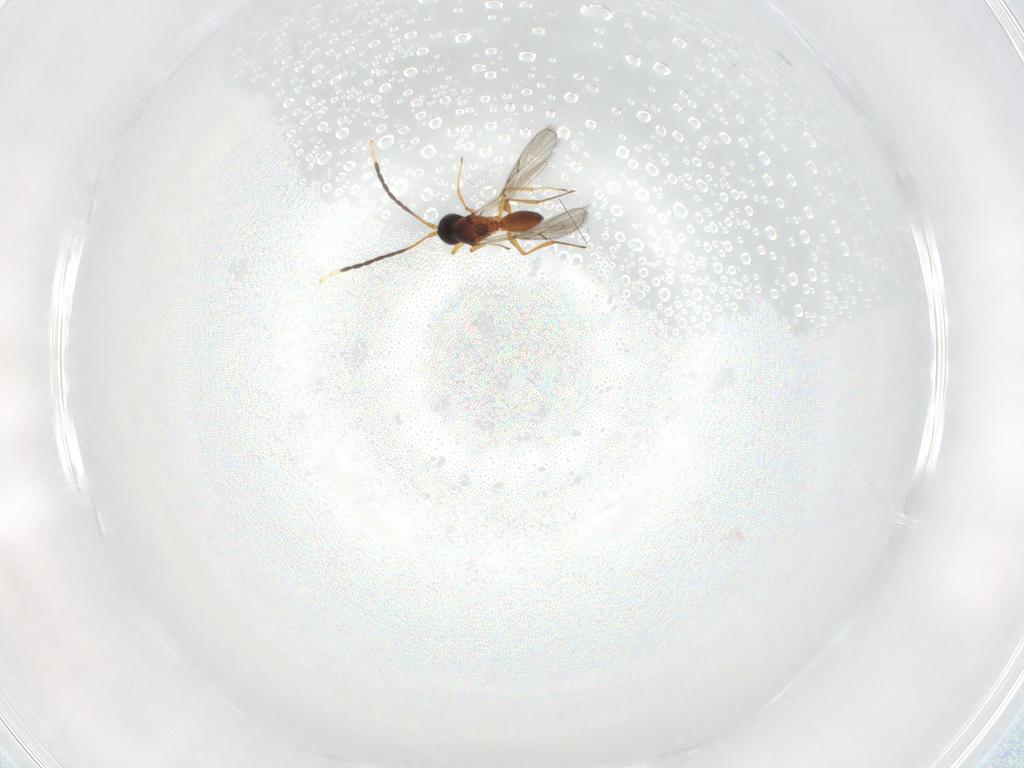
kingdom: Animalia
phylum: Arthropoda
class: Insecta
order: Hymenoptera
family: Figitidae
